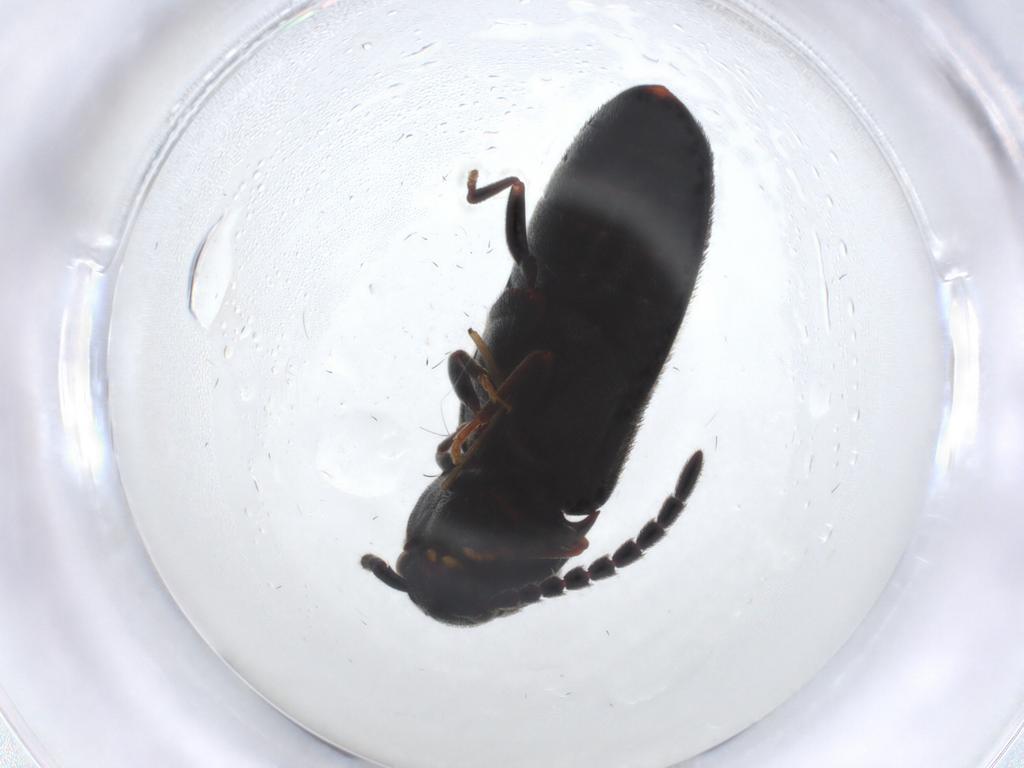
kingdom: Animalia
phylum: Arthropoda
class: Insecta
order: Coleoptera
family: Eucnemidae
